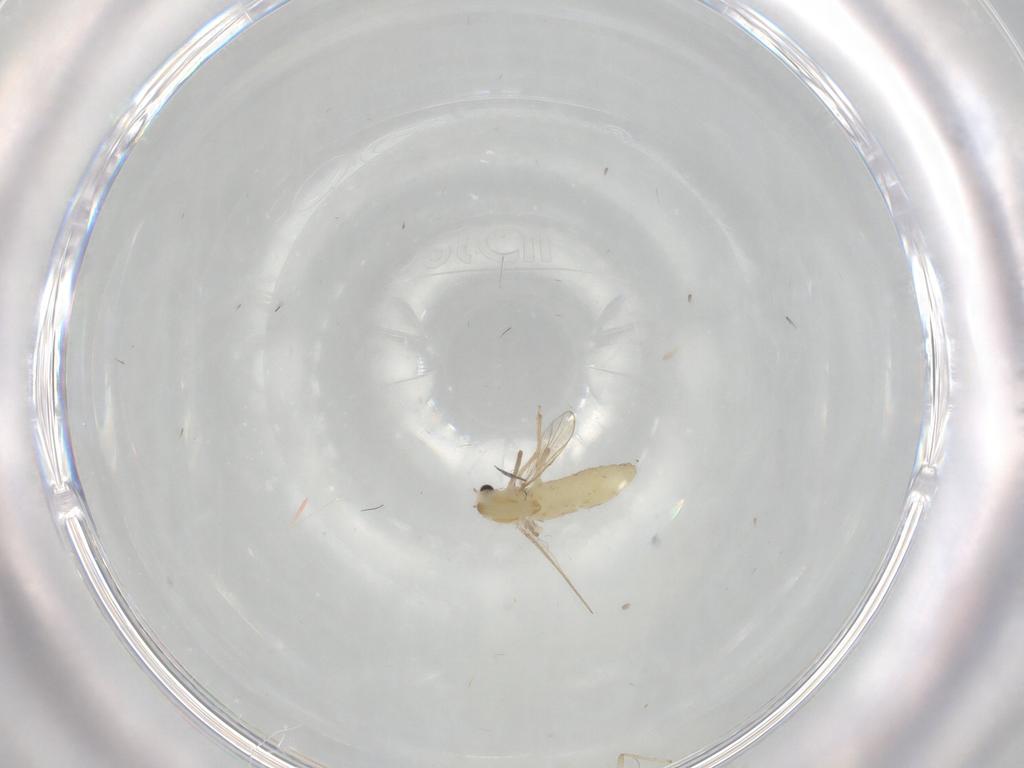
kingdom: Animalia
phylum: Arthropoda
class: Insecta
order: Diptera
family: Chironomidae
